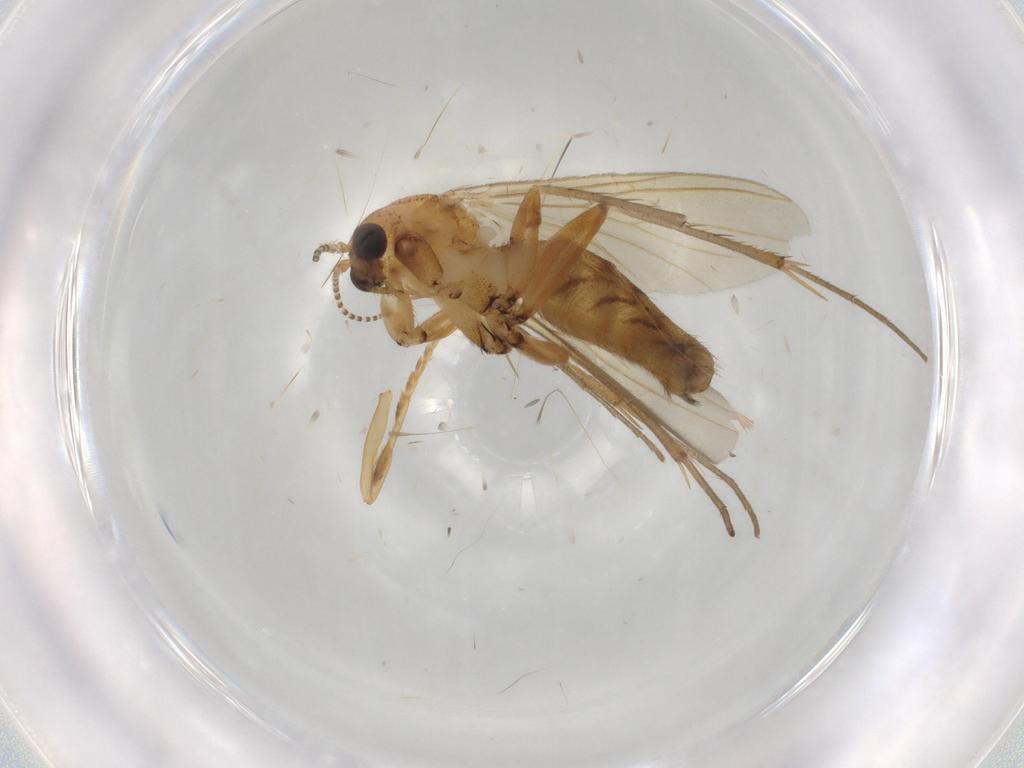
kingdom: Animalia
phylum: Arthropoda
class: Insecta
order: Diptera
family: Mycetophilidae
